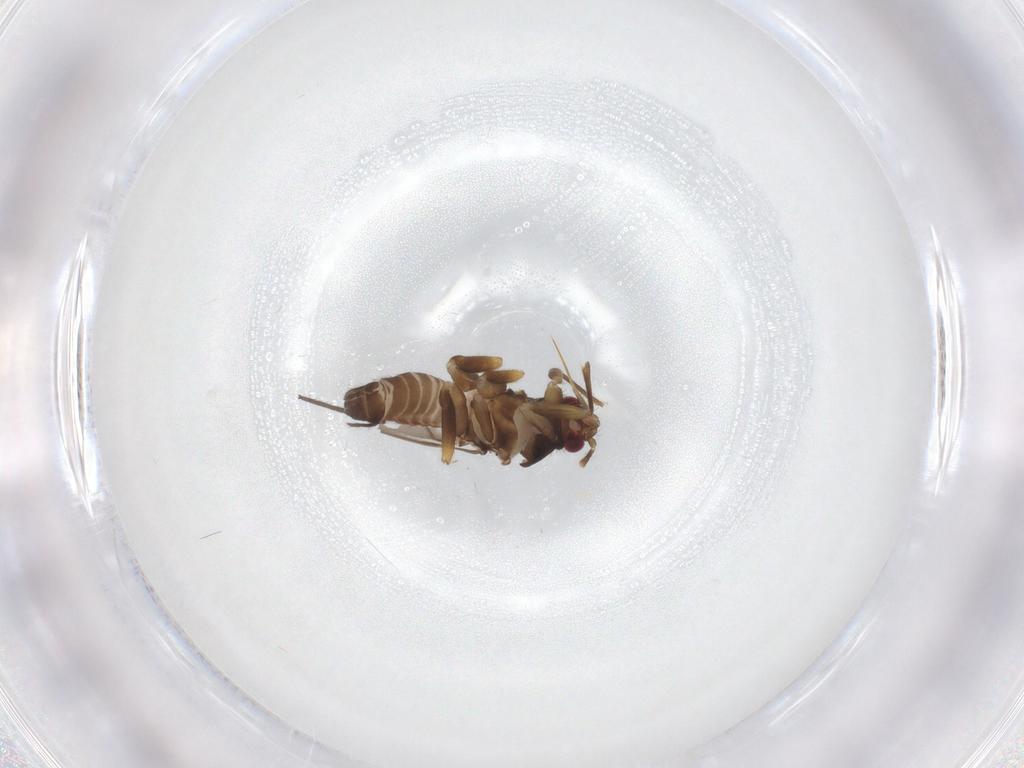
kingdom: Animalia
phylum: Arthropoda
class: Insecta
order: Hemiptera
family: Ceratocombidae
